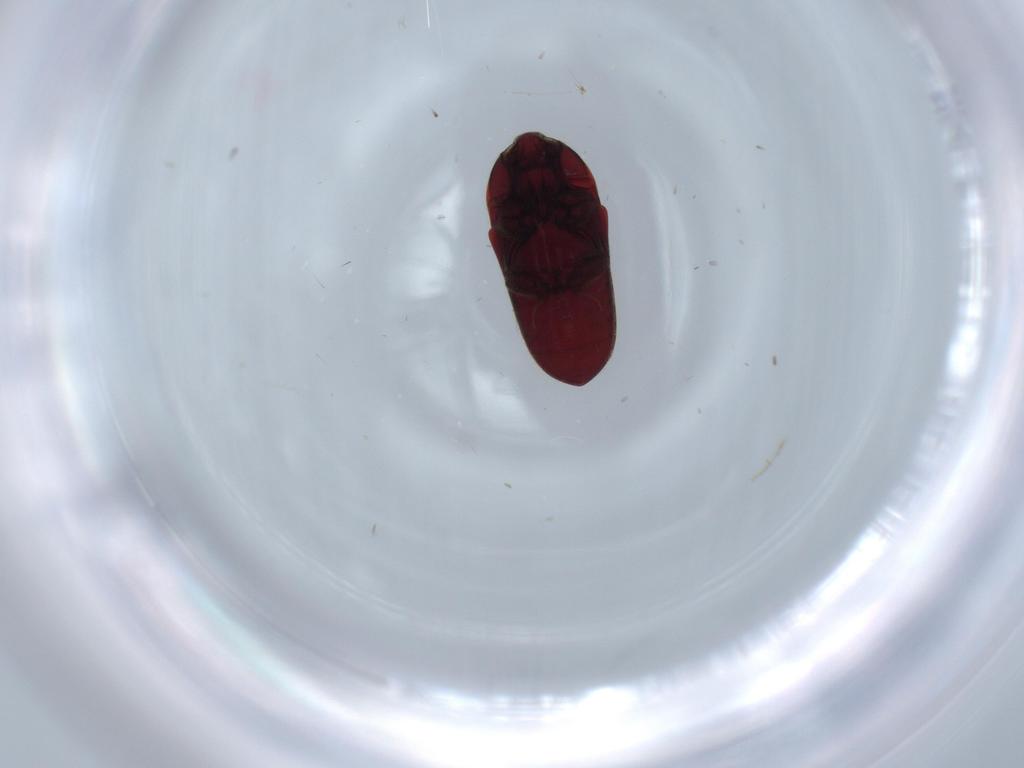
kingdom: Animalia
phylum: Arthropoda
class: Insecta
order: Coleoptera
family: Throscidae
